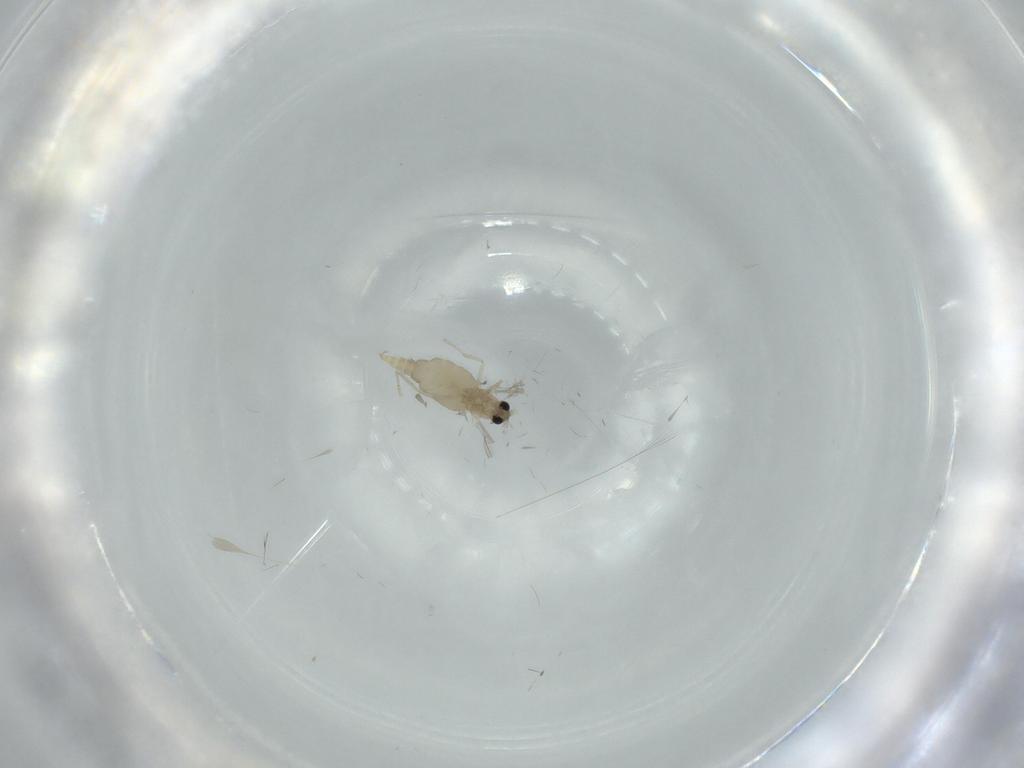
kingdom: Animalia
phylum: Arthropoda
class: Insecta
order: Diptera
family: Cecidomyiidae
